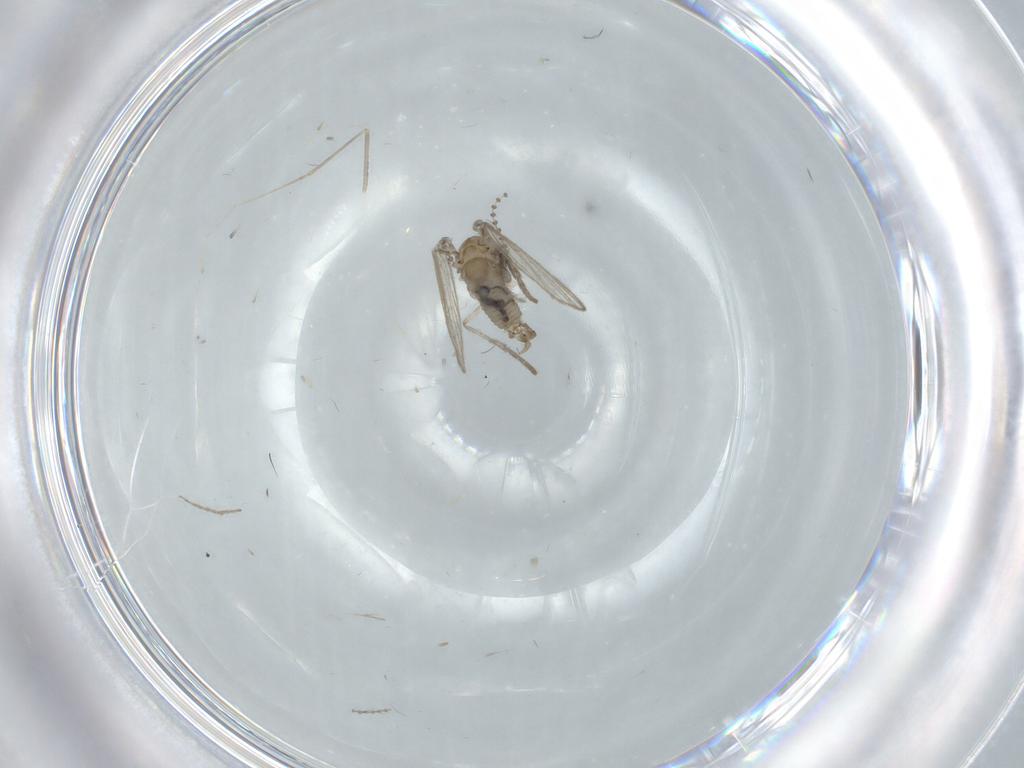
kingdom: Animalia
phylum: Arthropoda
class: Insecta
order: Diptera
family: Psychodidae
